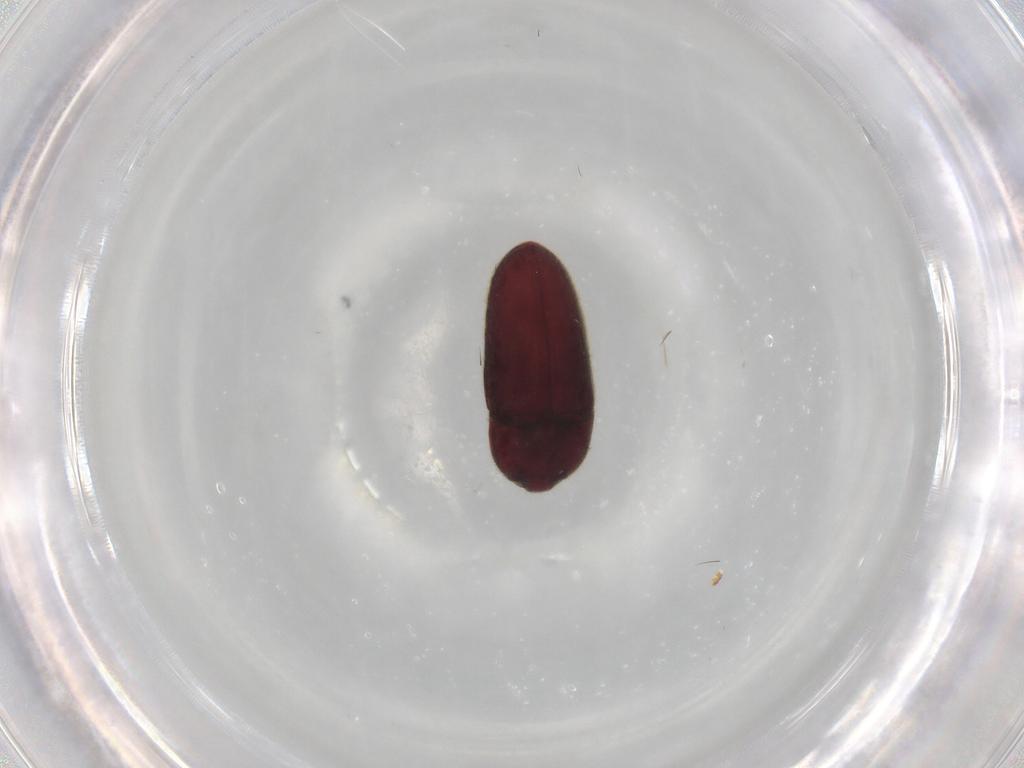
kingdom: Animalia
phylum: Arthropoda
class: Insecta
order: Coleoptera
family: Throscidae
